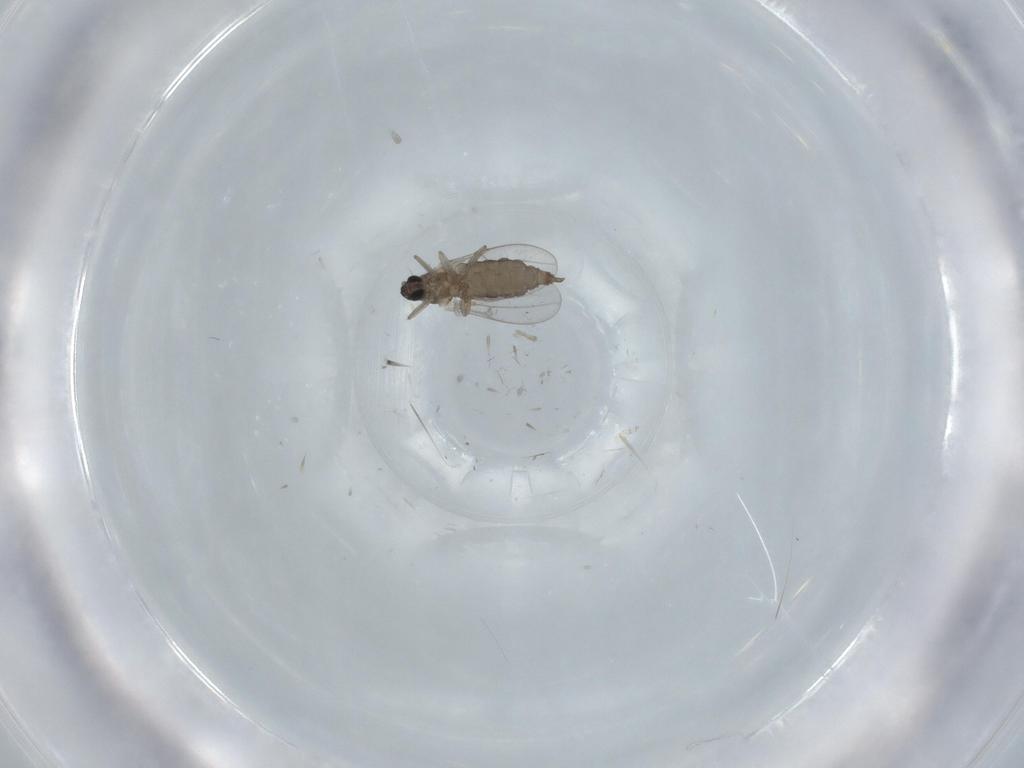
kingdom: Animalia
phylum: Arthropoda
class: Insecta
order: Diptera
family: Cecidomyiidae
